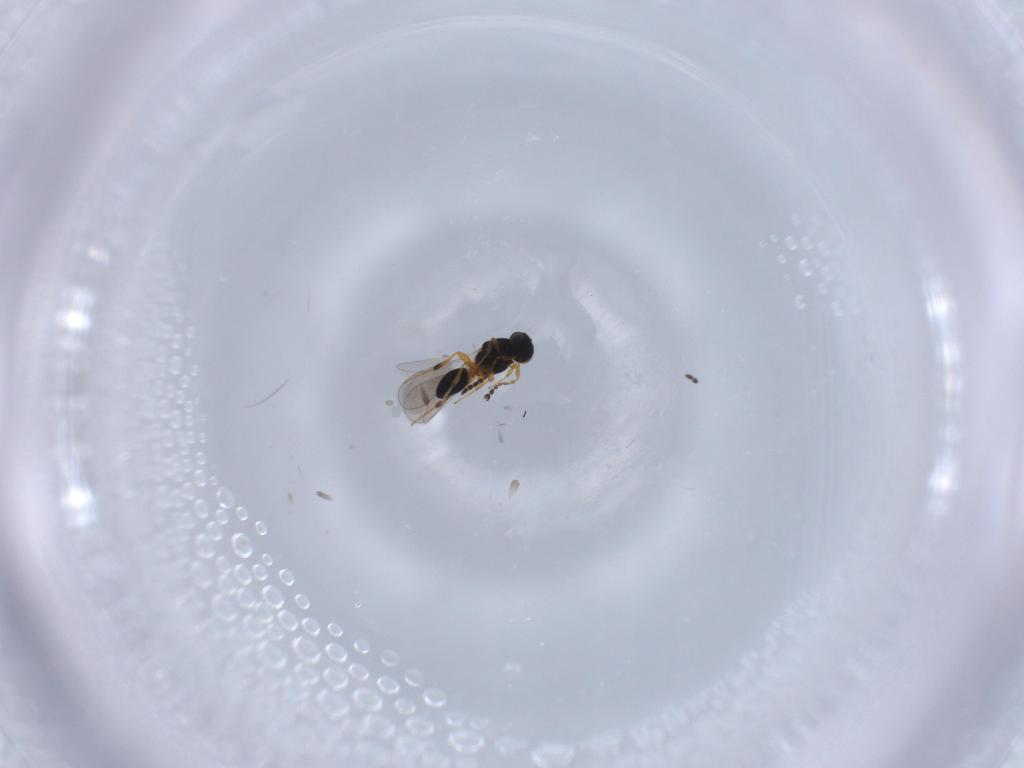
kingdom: Animalia
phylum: Arthropoda
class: Insecta
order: Hymenoptera
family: Platygastridae
